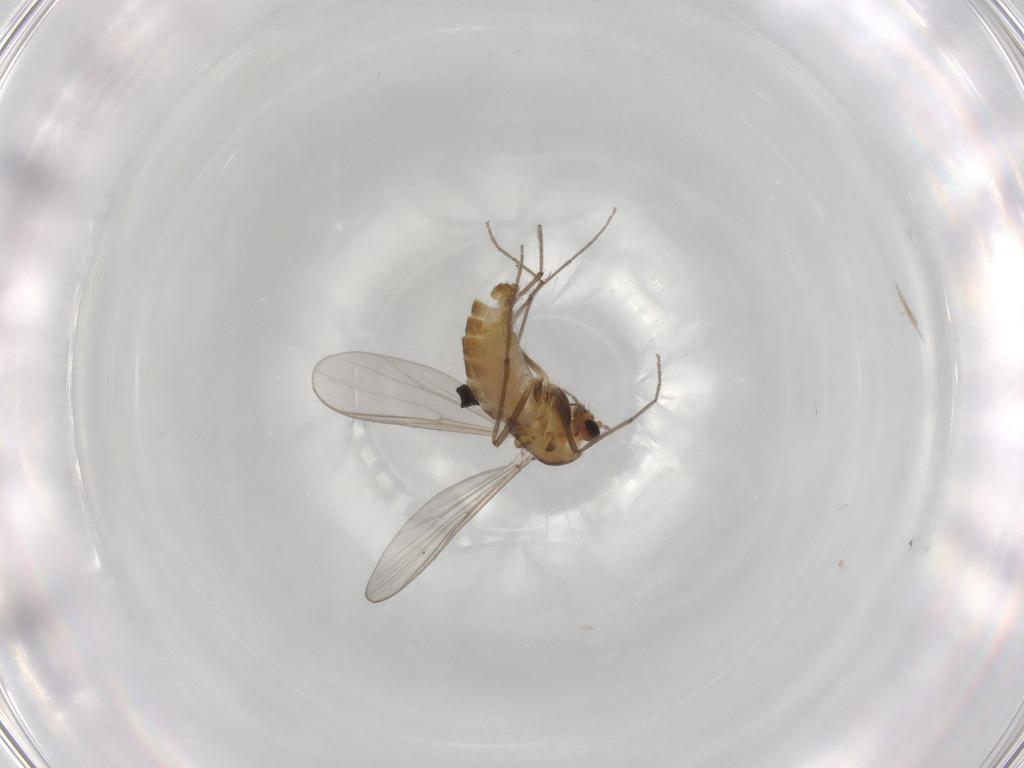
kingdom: Animalia
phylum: Arthropoda
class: Insecta
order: Diptera
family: Chironomidae
